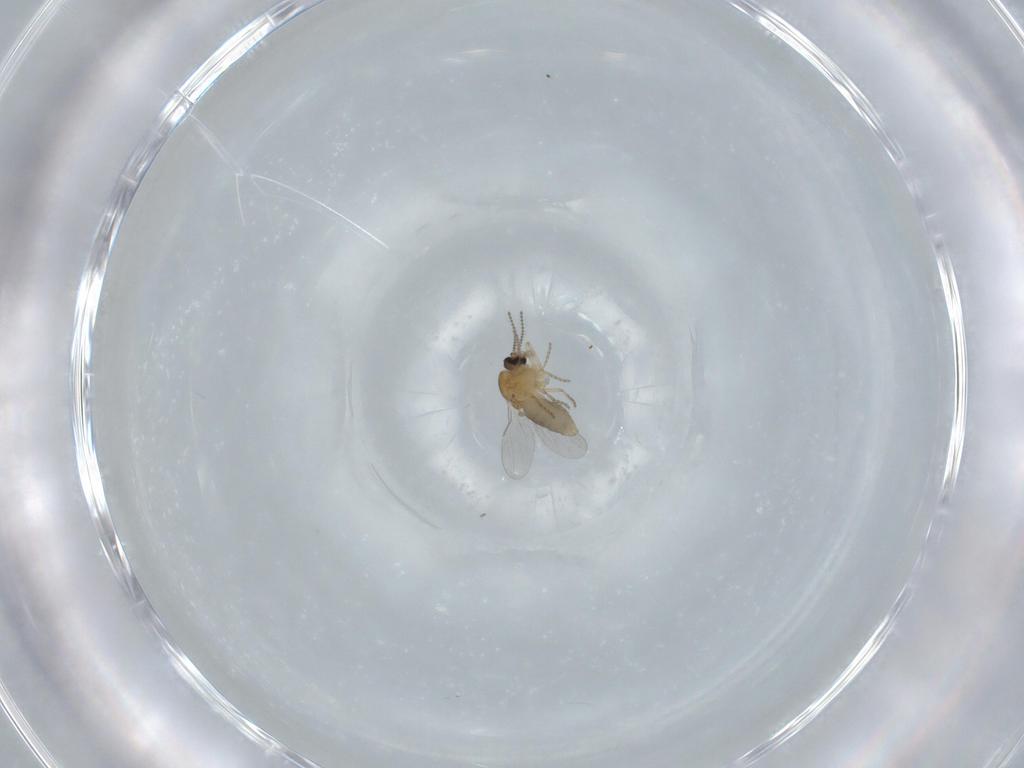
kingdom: Animalia
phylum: Arthropoda
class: Insecta
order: Diptera
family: Ceratopogonidae
